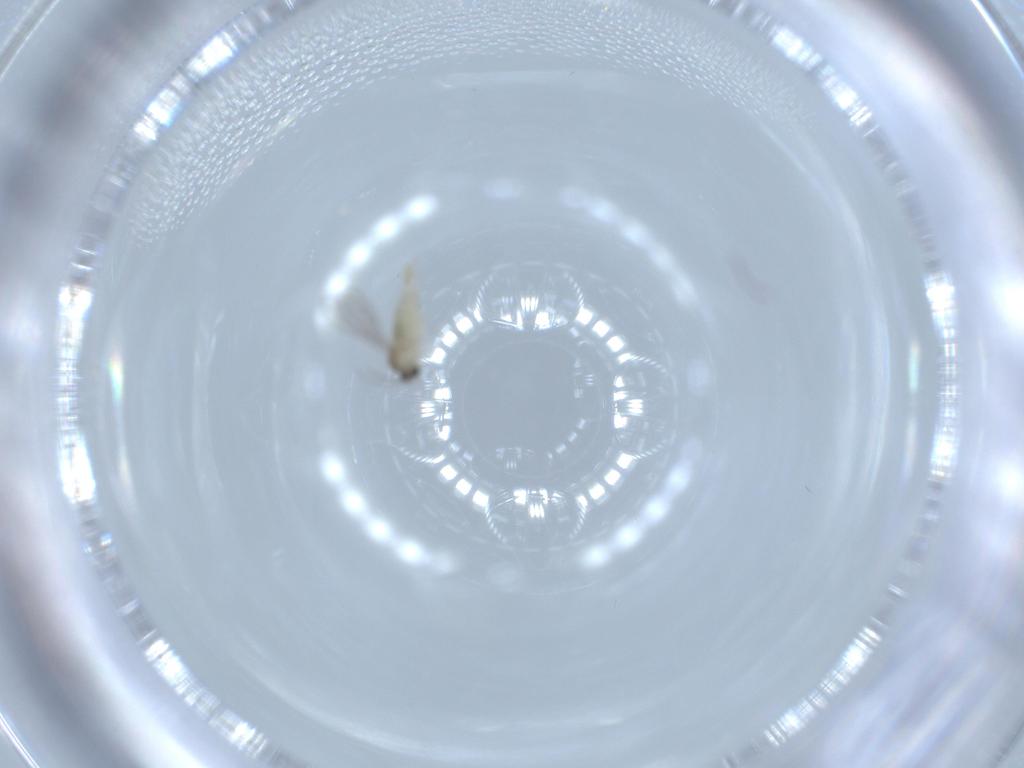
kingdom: Animalia
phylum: Arthropoda
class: Insecta
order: Diptera
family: Cecidomyiidae
